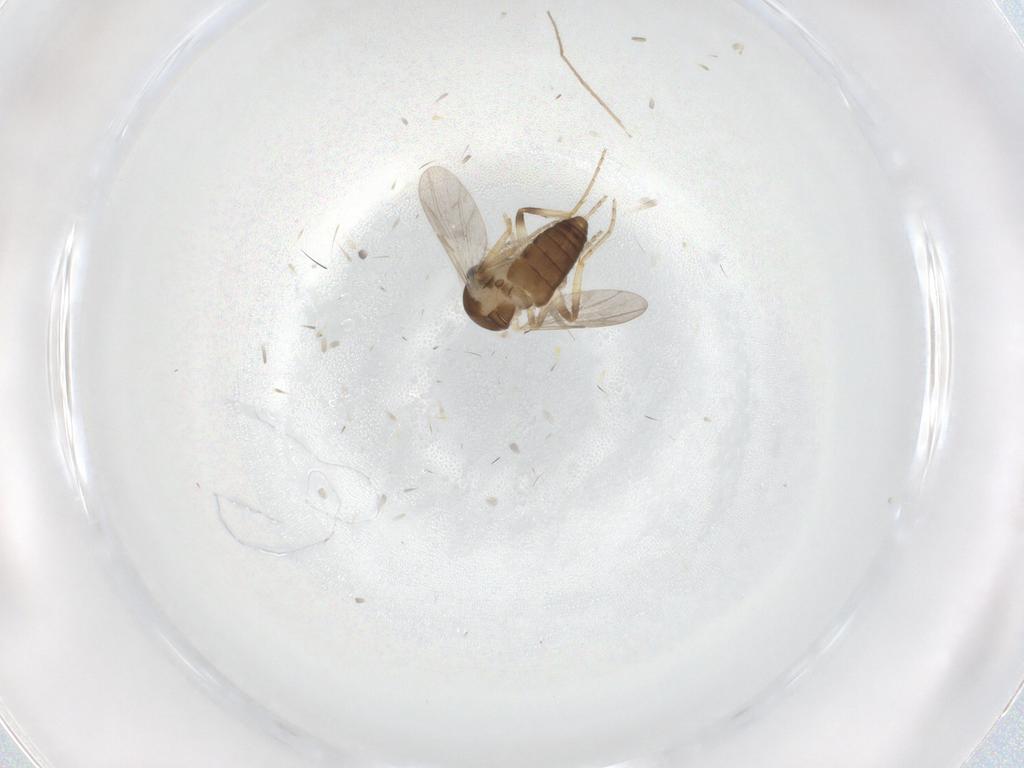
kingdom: Animalia
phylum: Arthropoda
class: Insecta
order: Diptera
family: Ceratopogonidae
